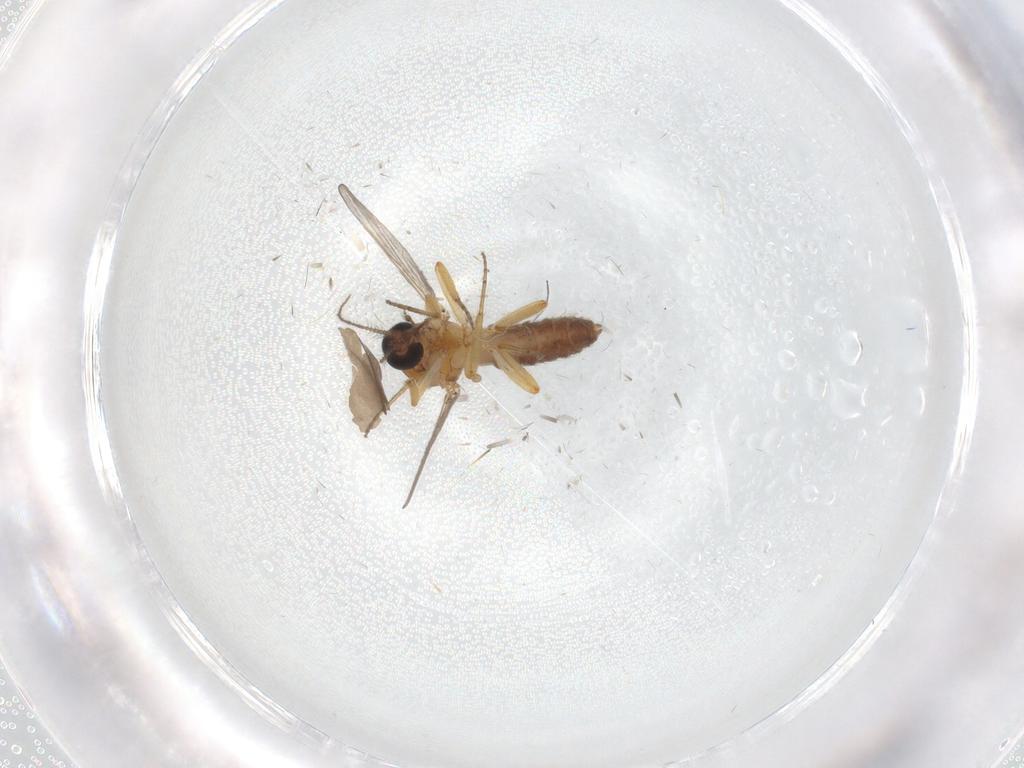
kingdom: Animalia
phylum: Arthropoda
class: Insecta
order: Diptera
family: Ceratopogonidae
